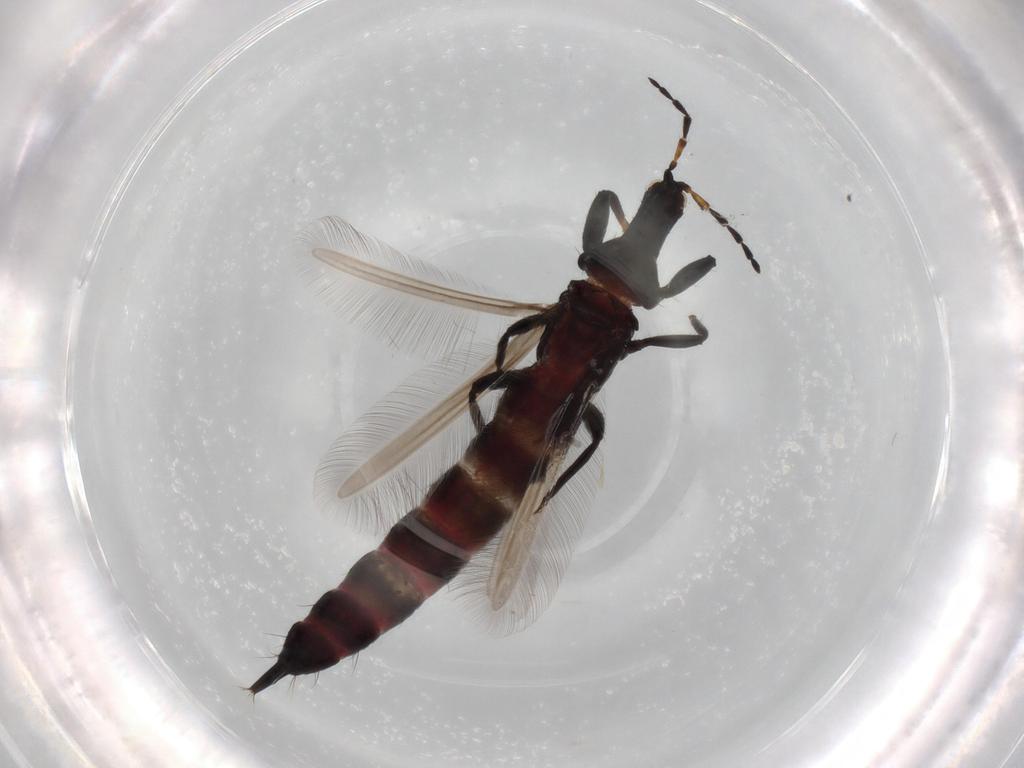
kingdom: Animalia
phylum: Arthropoda
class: Insecta
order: Thysanoptera
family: Phlaeothripidae
